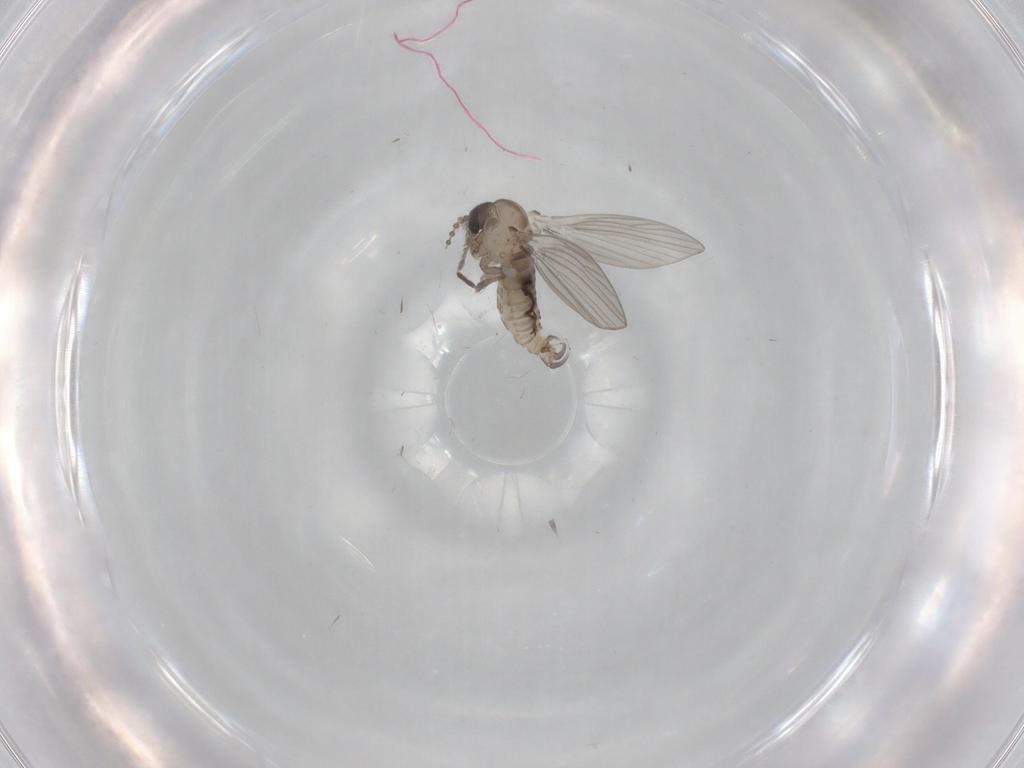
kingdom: Animalia
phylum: Arthropoda
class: Insecta
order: Diptera
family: Psychodidae
